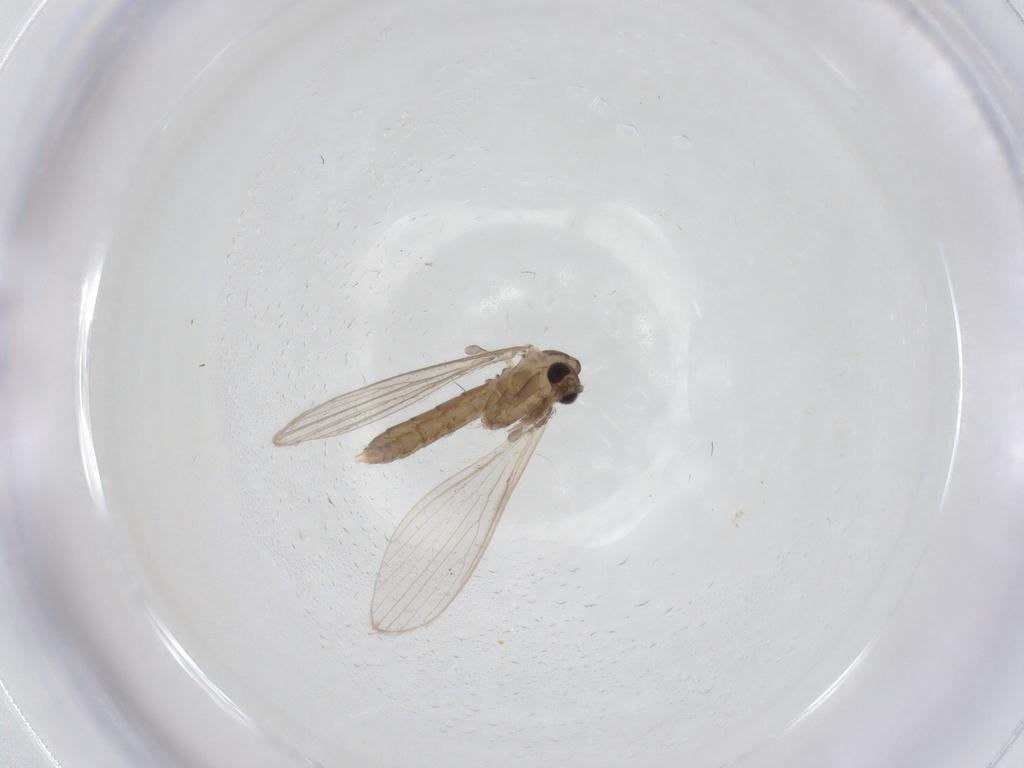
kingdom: Animalia
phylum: Arthropoda
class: Insecta
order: Diptera
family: Psychodidae
